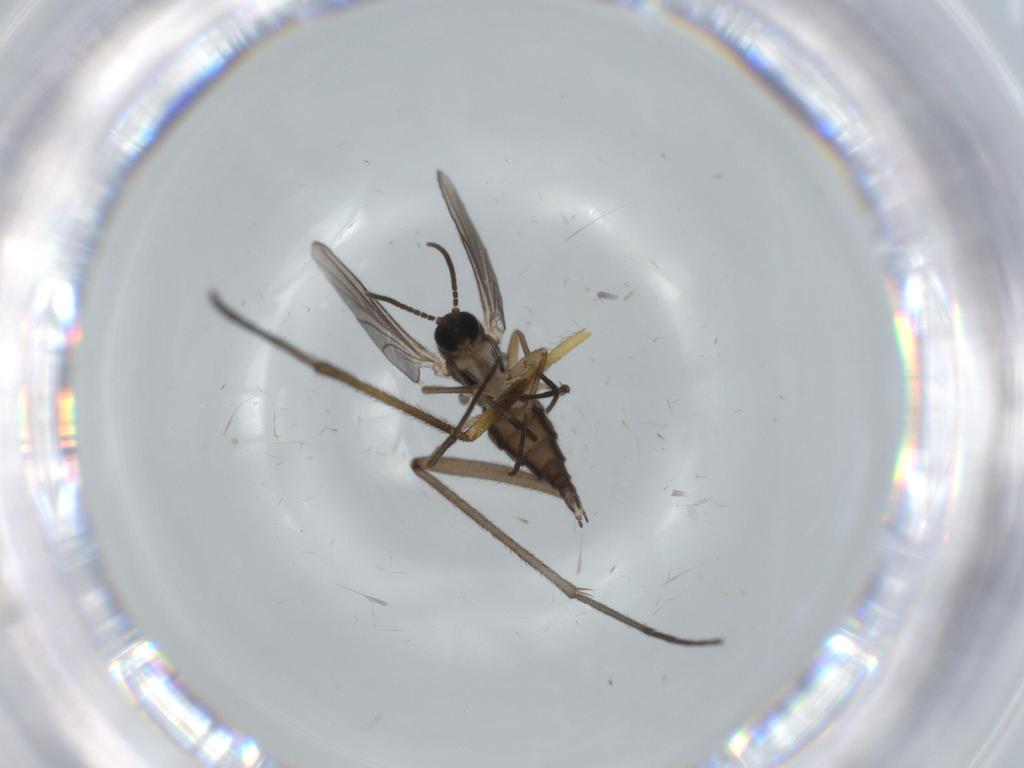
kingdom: Animalia
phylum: Arthropoda
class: Insecta
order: Diptera
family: Sciaridae
